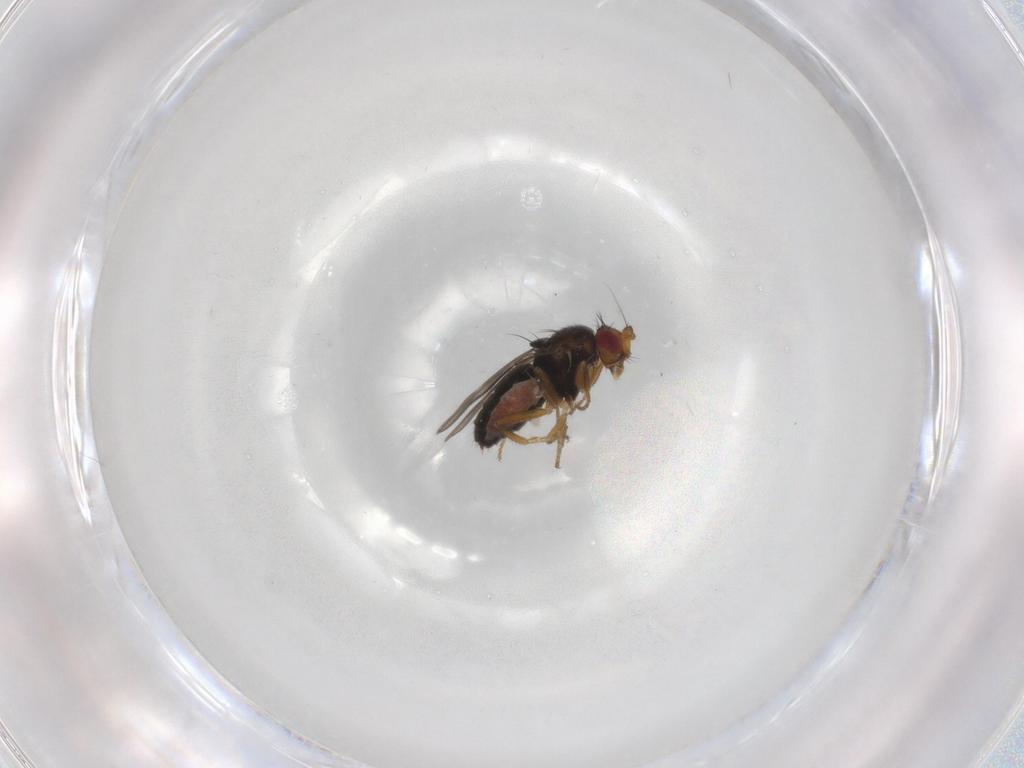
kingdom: Animalia
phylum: Arthropoda
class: Insecta
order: Diptera
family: Sphaeroceridae
